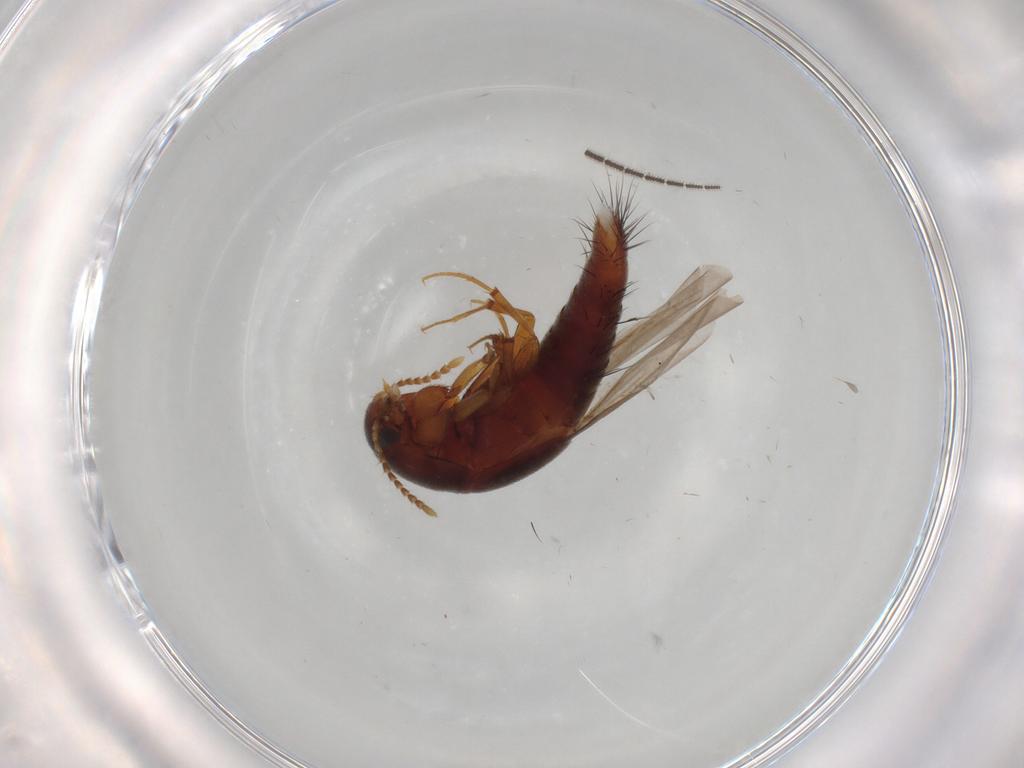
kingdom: Animalia
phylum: Arthropoda
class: Insecta
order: Coleoptera
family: Staphylinidae
